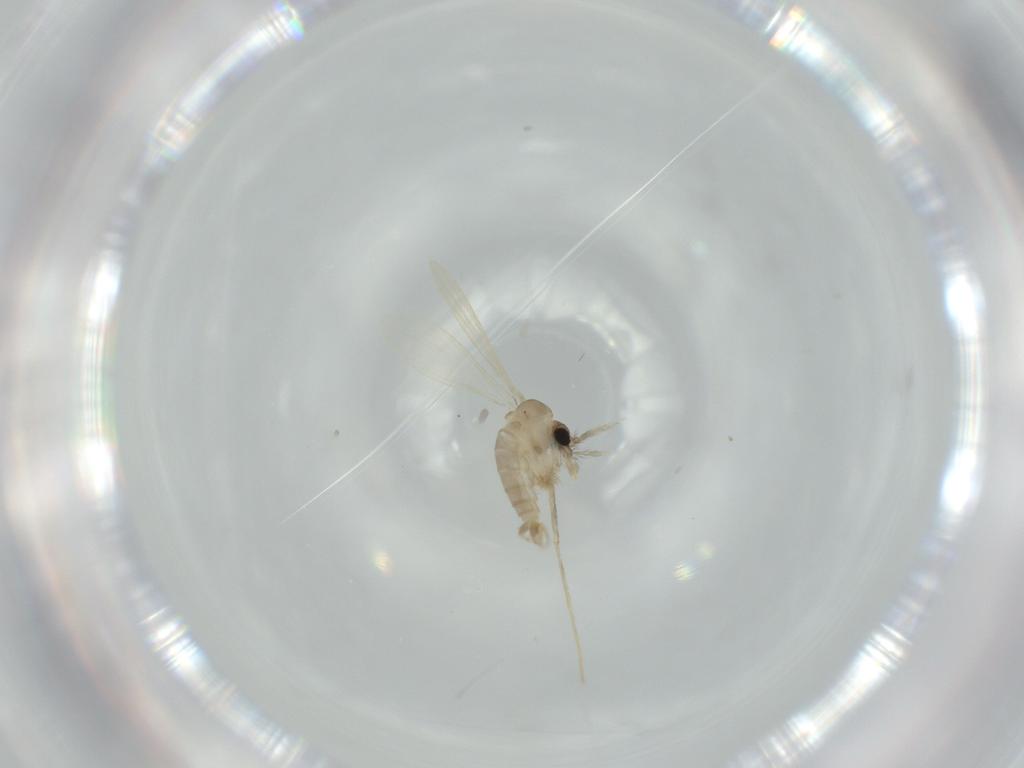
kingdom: Animalia
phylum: Arthropoda
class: Insecta
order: Diptera
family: Psychodidae
